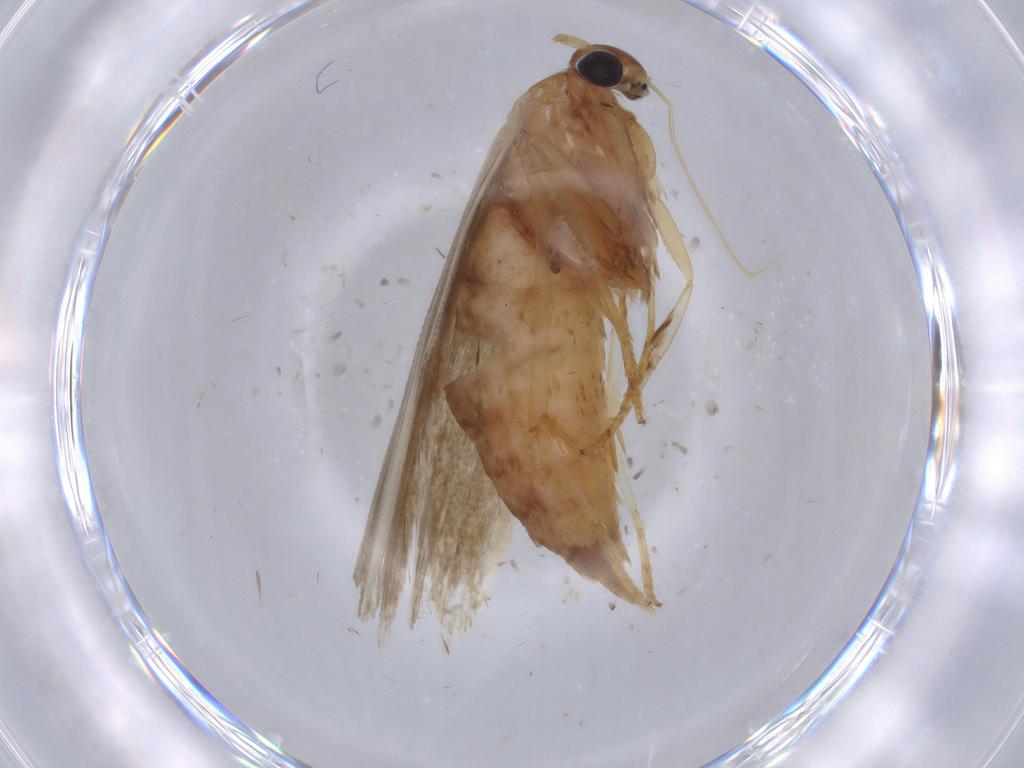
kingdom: Animalia
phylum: Arthropoda
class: Insecta
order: Lepidoptera
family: Blastobasidae
